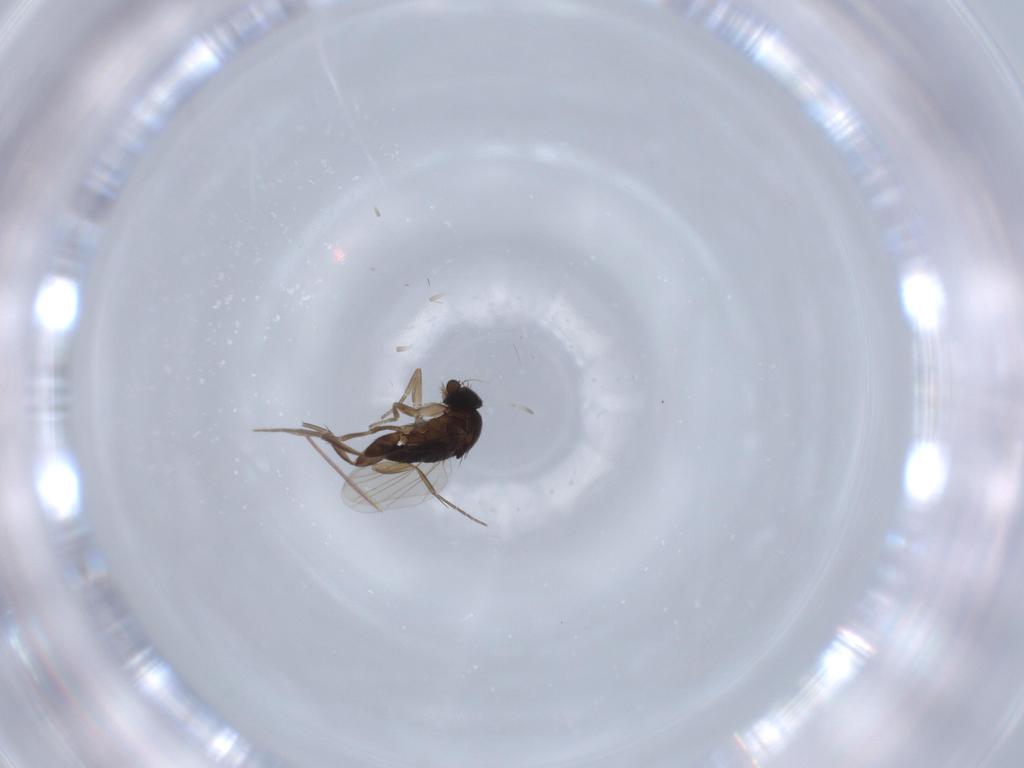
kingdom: Animalia
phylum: Arthropoda
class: Insecta
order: Diptera
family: Phoridae
